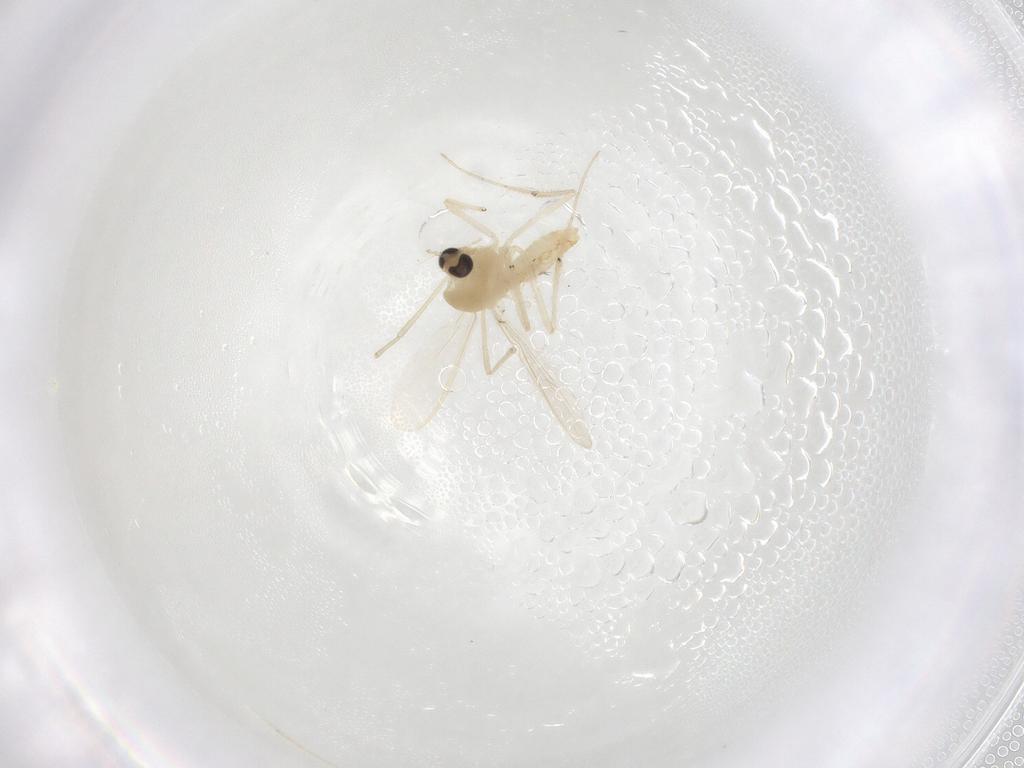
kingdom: Animalia
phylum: Arthropoda
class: Insecta
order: Diptera
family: Chironomidae
